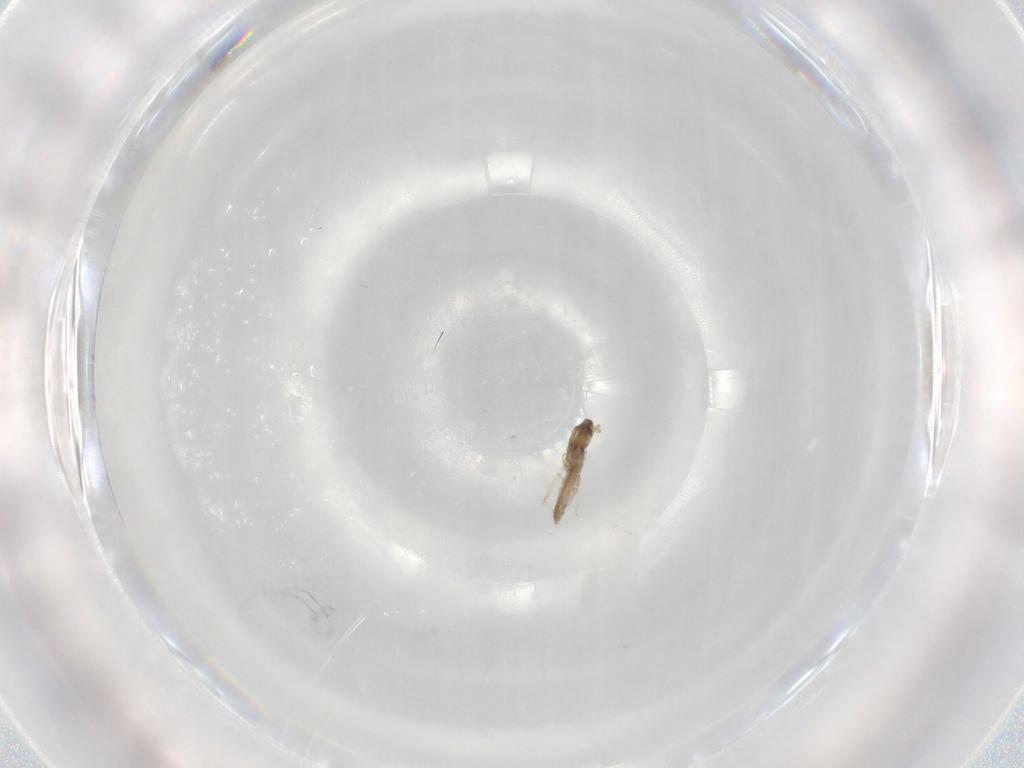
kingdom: Animalia
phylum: Arthropoda
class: Insecta
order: Diptera
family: Cecidomyiidae
